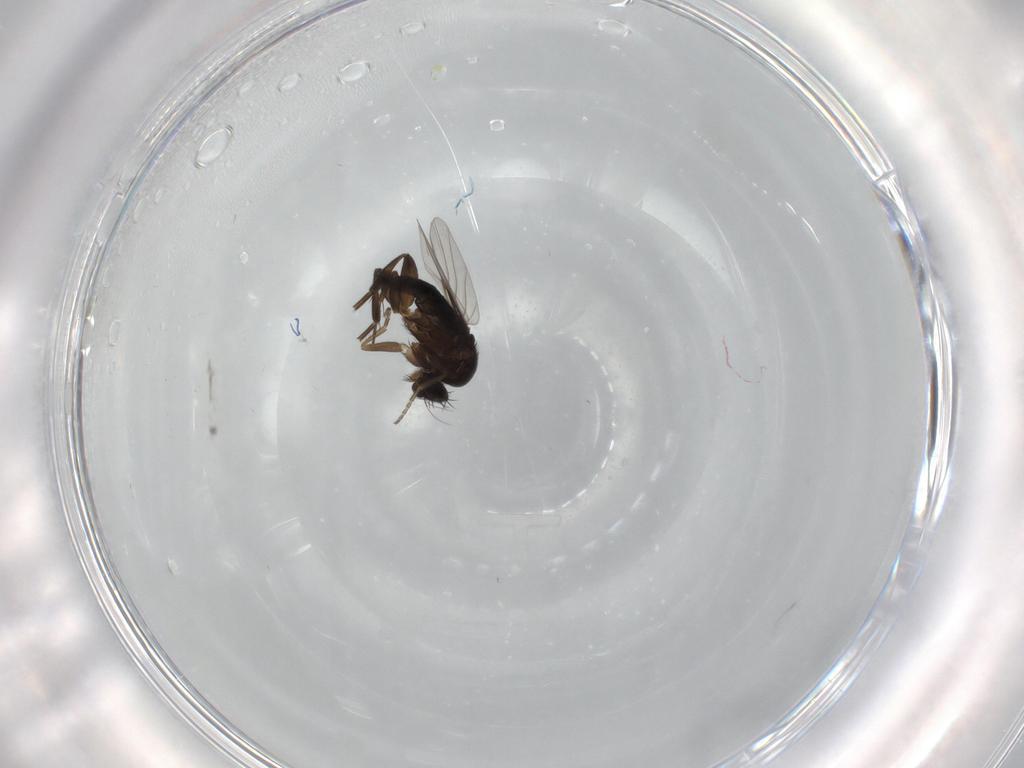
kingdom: Animalia
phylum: Arthropoda
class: Insecta
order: Diptera
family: Phoridae
